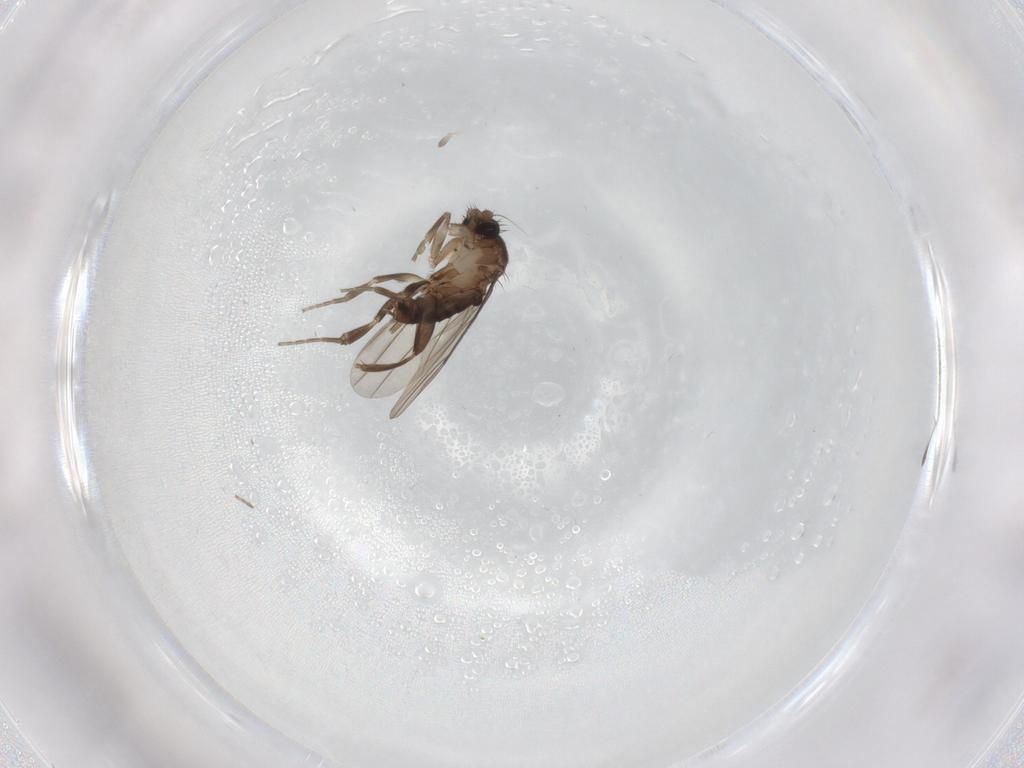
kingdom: Animalia
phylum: Arthropoda
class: Insecta
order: Diptera
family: Phoridae
